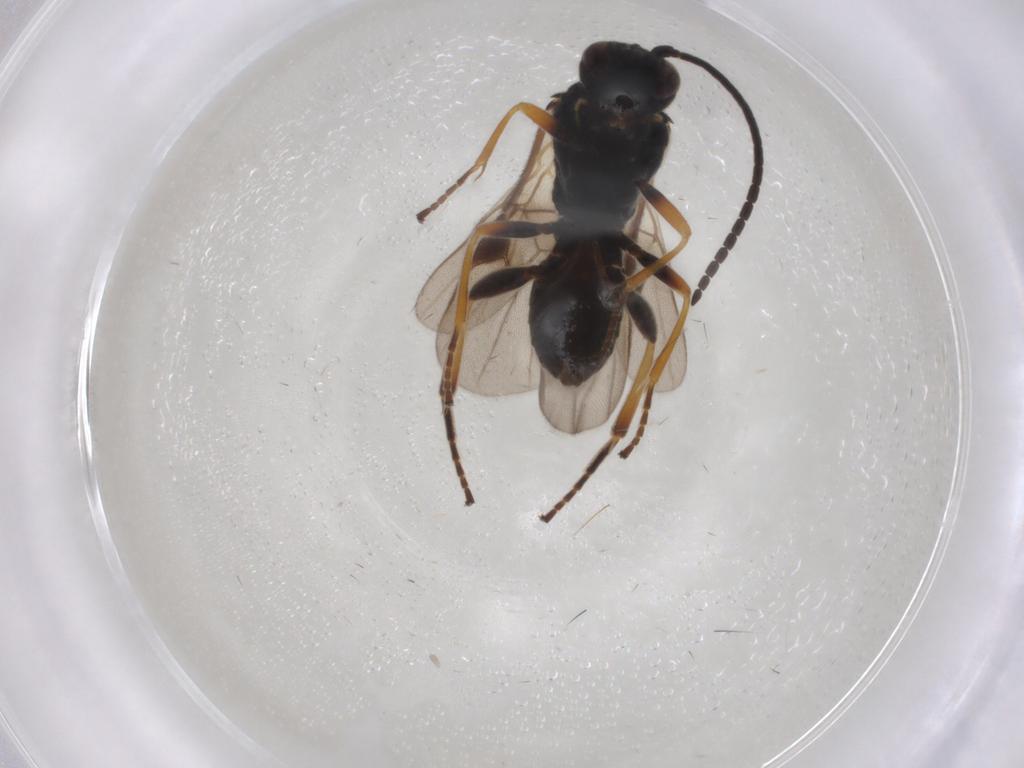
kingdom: Animalia
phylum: Arthropoda
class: Insecta
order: Hymenoptera
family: Braconidae
